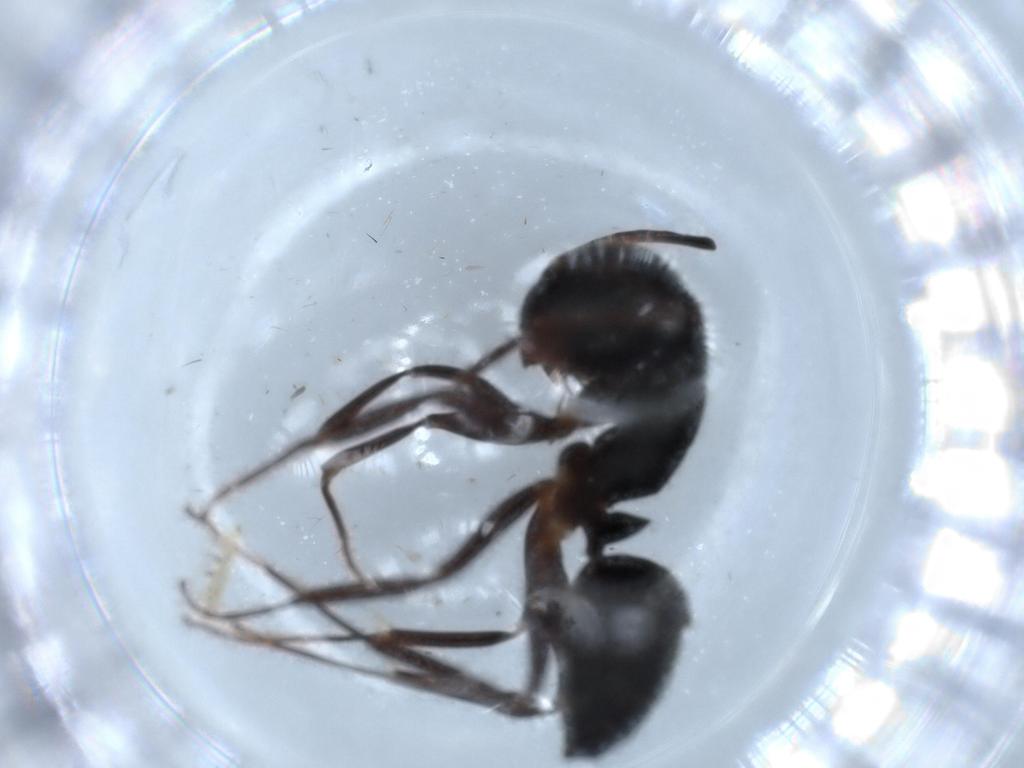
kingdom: Animalia
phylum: Arthropoda
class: Insecta
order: Hymenoptera
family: Formicidae
